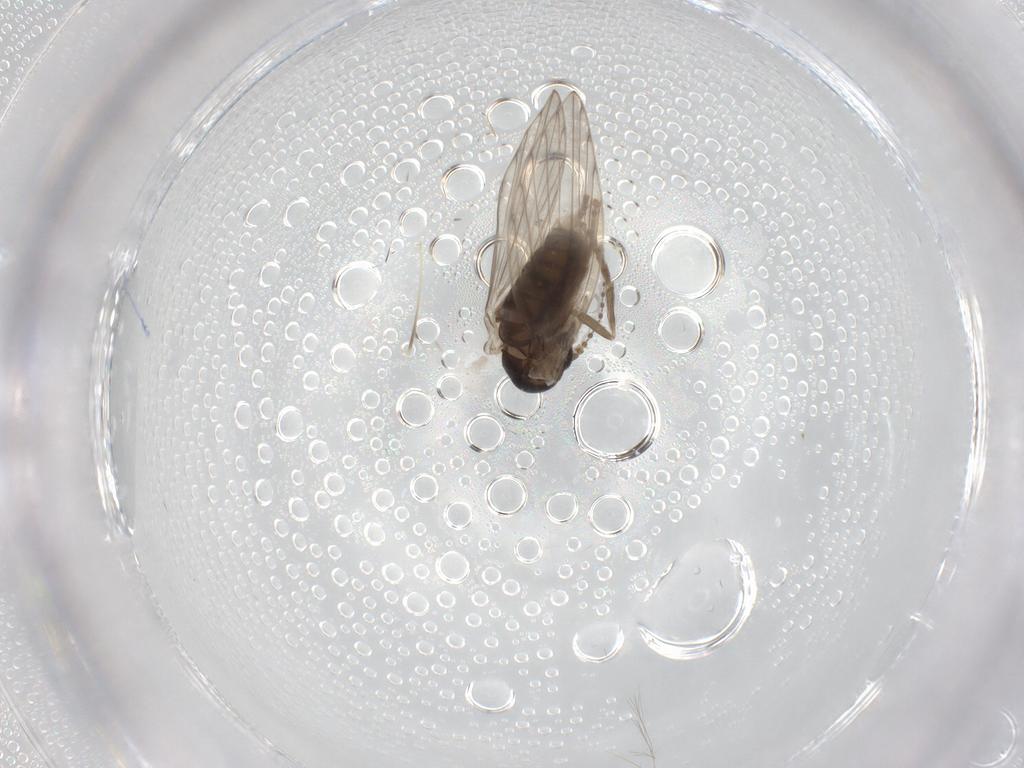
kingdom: Animalia
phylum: Arthropoda
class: Insecta
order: Diptera
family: Psychodidae
